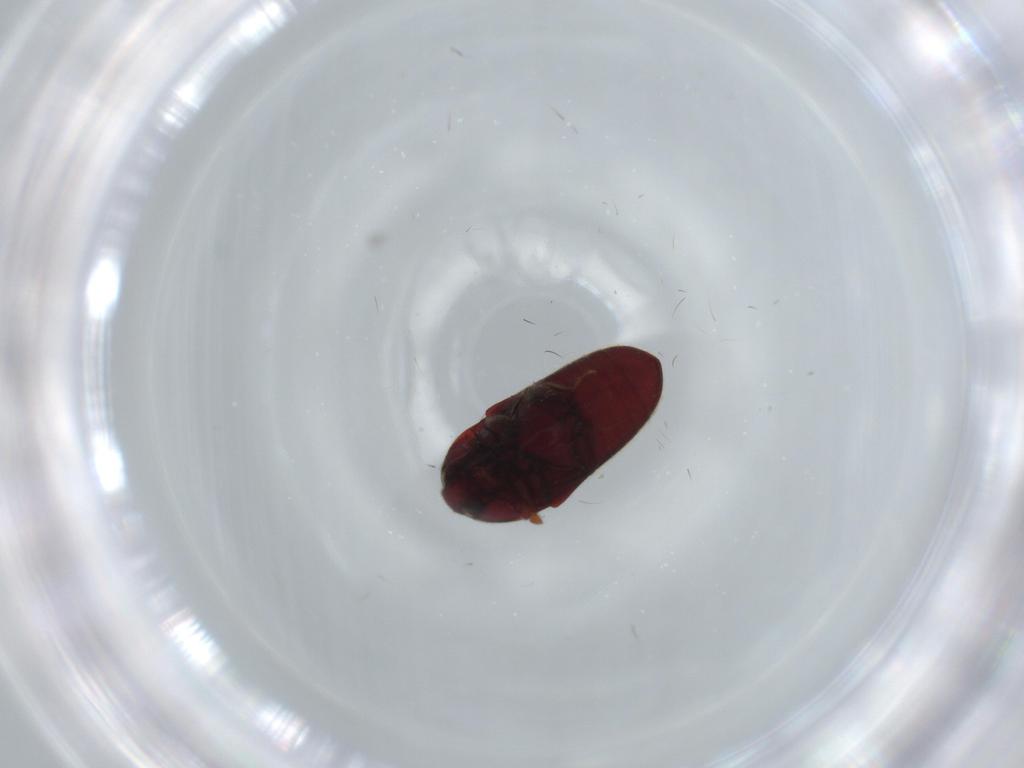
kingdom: Animalia
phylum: Arthropoda
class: Insecta
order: Coleoptera
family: Throscidae
